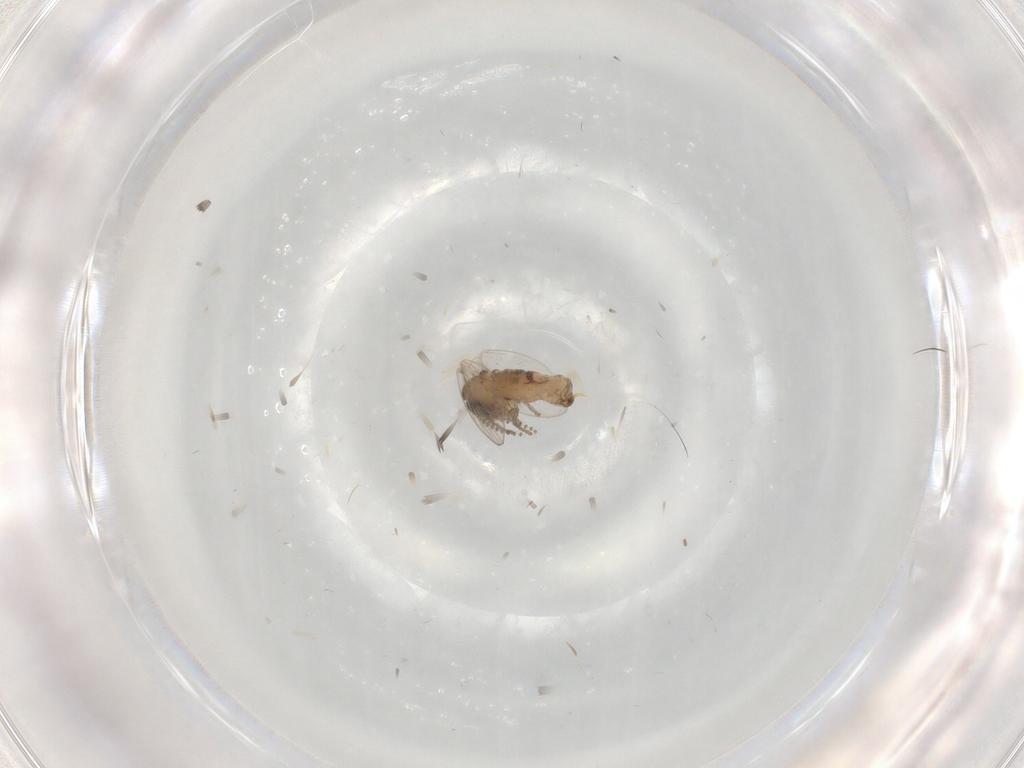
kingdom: Animalia
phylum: Arthropoda
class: Insecta
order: Diptera
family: Psychodidae
